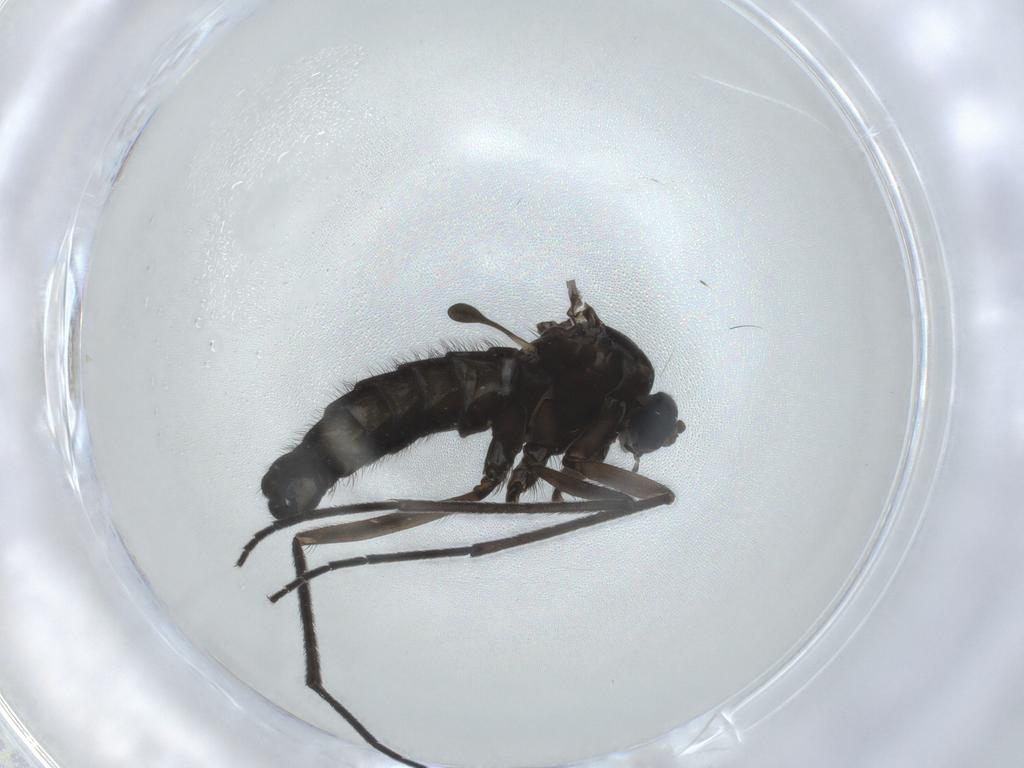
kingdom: Animalia
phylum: Arthropoda
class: Insecta
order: Diptera
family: Sciaridae
